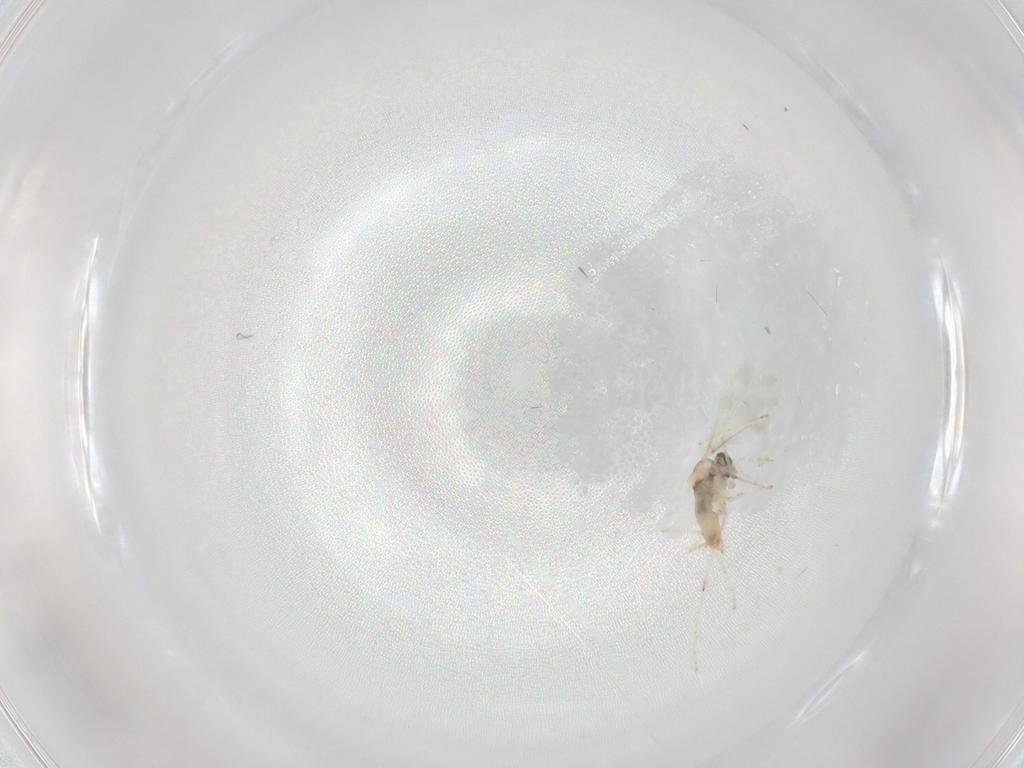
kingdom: Animalia
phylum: Arthropoda
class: Insecta
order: Diptera
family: Cecidomyiidae
